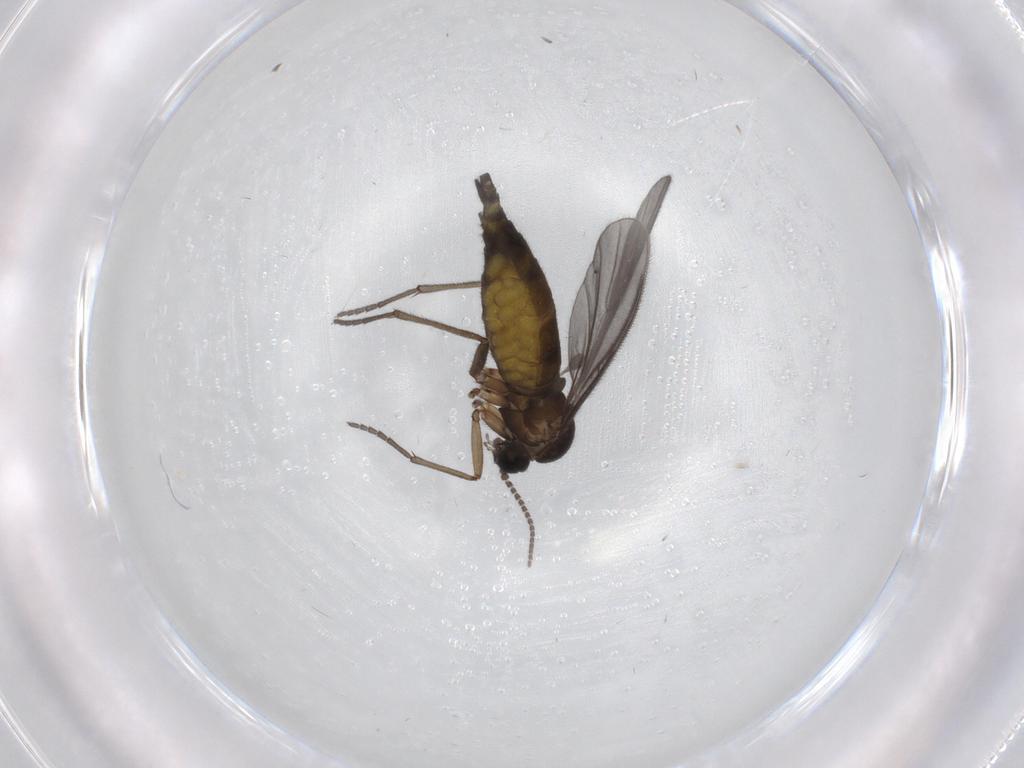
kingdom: Animalia
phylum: Arthropoda
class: Insecta
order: Diptera
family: Sciaridae
